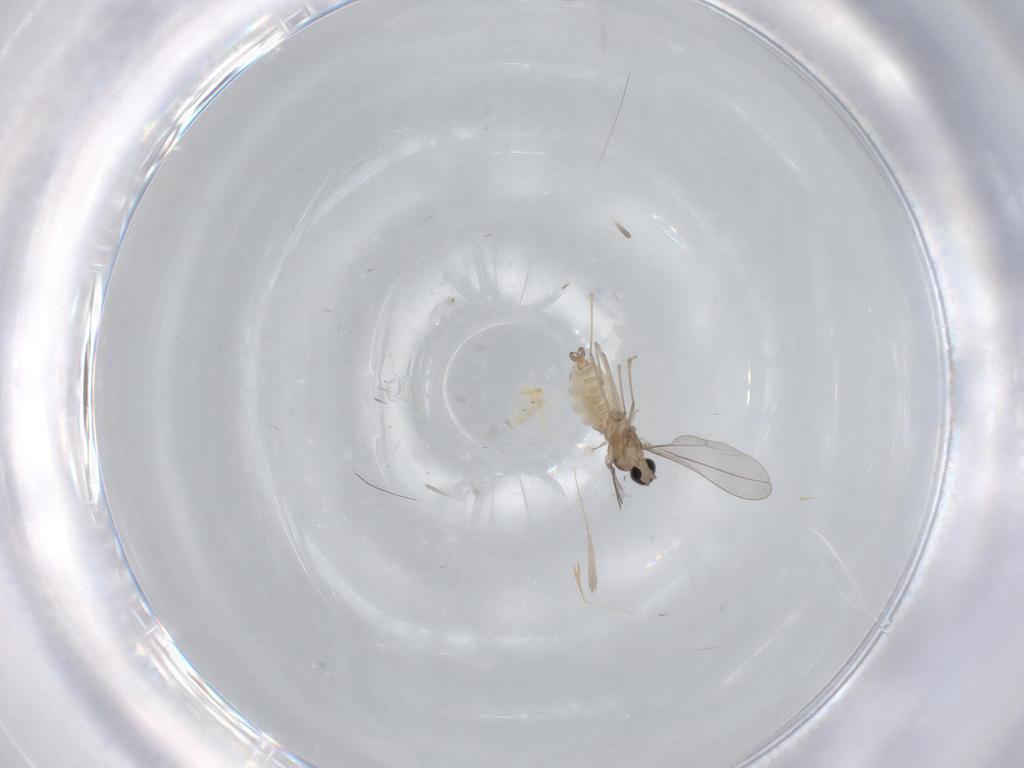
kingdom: Animalia
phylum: Arthropoda
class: Insecta
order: Diptera
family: Cecidomyiidae
